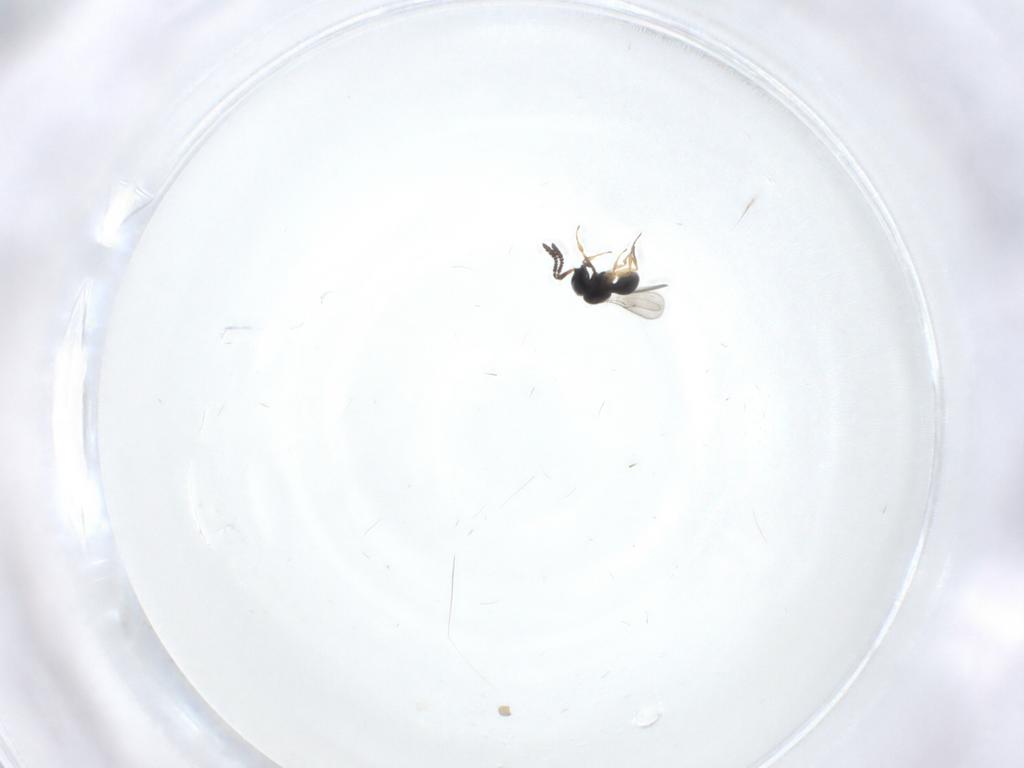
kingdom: Animalia
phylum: Arthropoda
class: Insecta
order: Hymenoptera
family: Scelionidae
